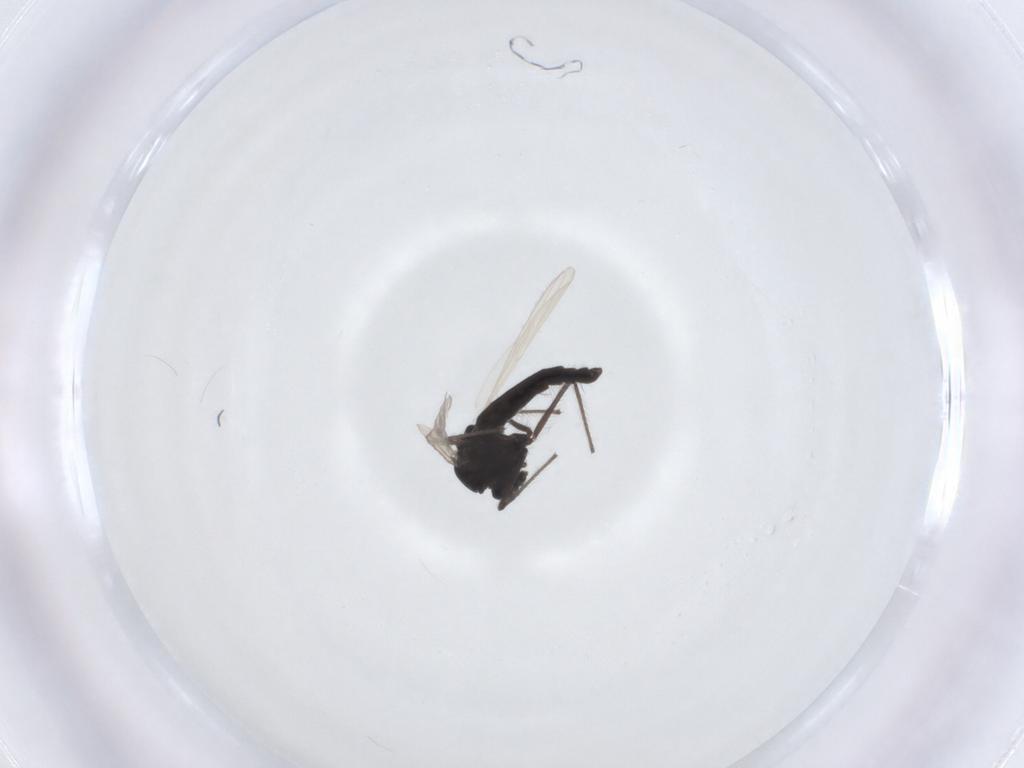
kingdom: Animalia
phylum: Arthropoda
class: Insecta
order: Diptera
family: Chironomidae
